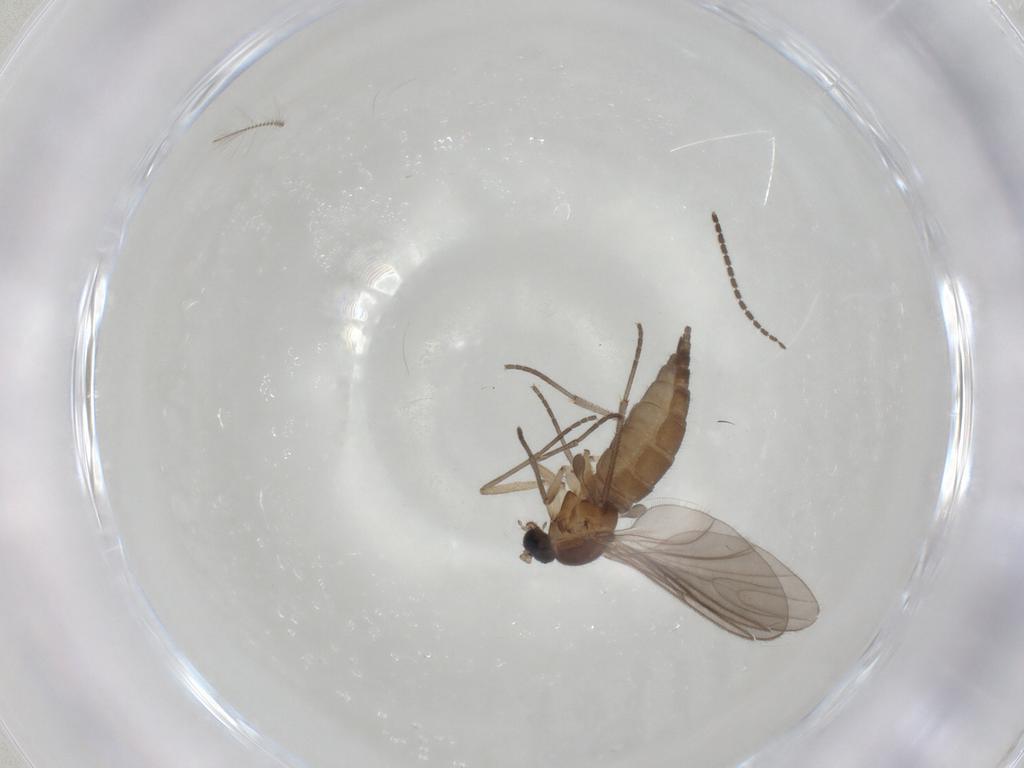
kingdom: Animalia
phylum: Arthropoda
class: Insecta
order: Diptera
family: Sciaridae
